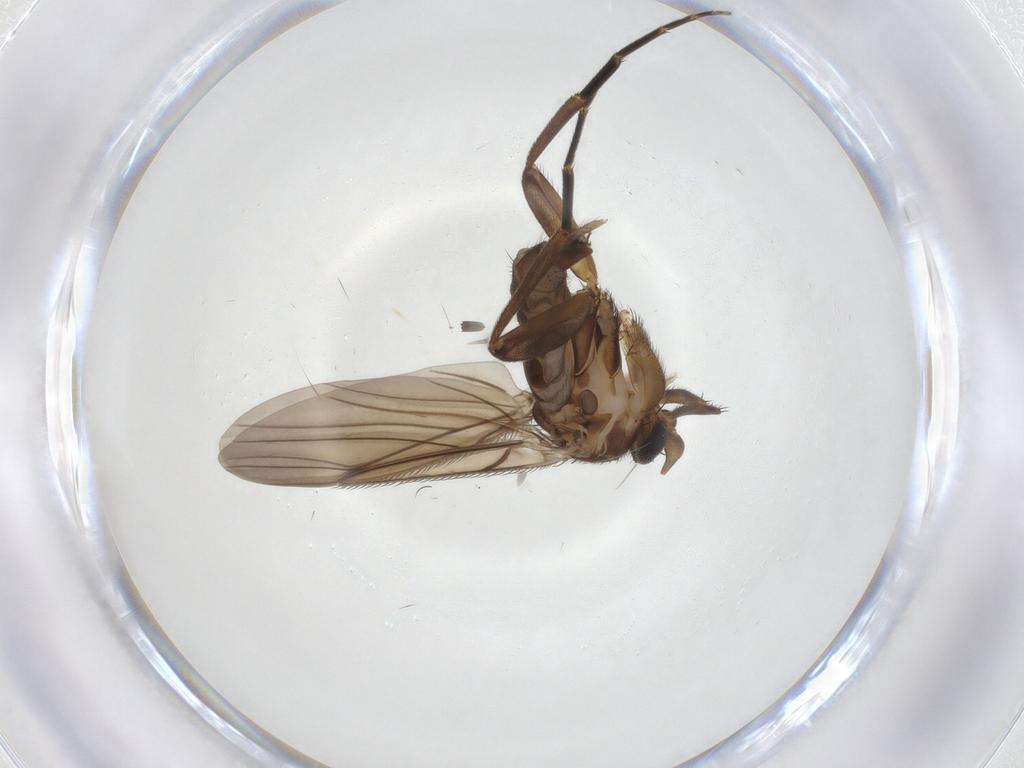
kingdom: Animalia
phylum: Arthropoda
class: Insecta
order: Diptera
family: Phoridae
